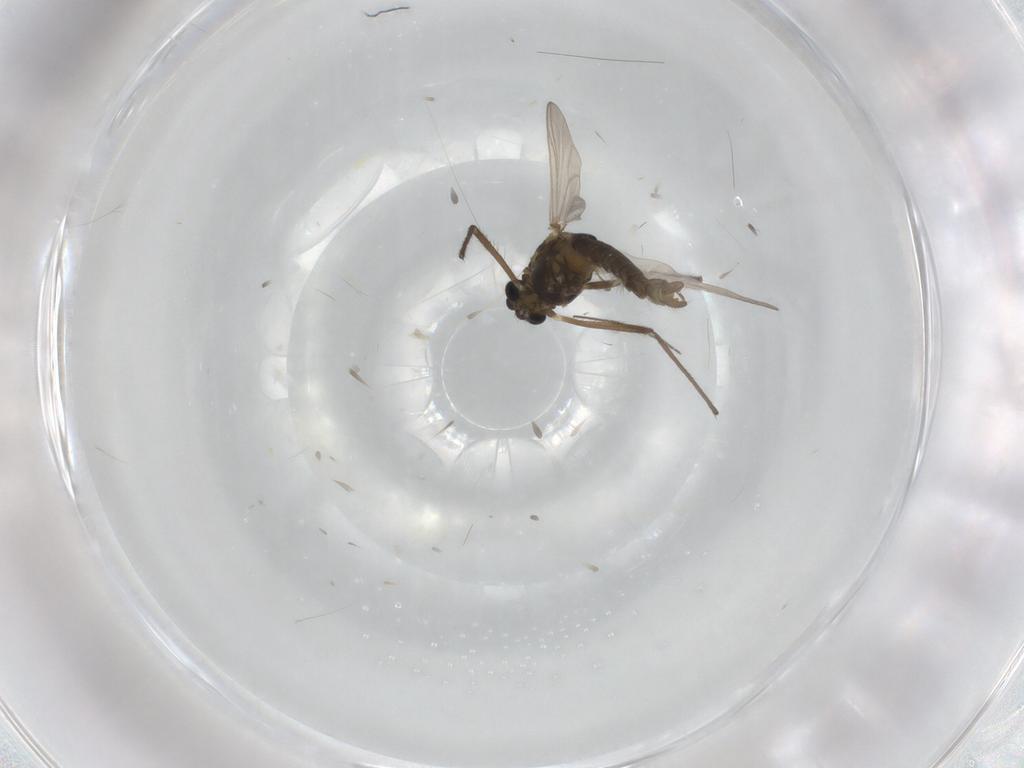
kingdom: Animalia
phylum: Arthropoda
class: Insecta
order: Diptera
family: Chironomidae
